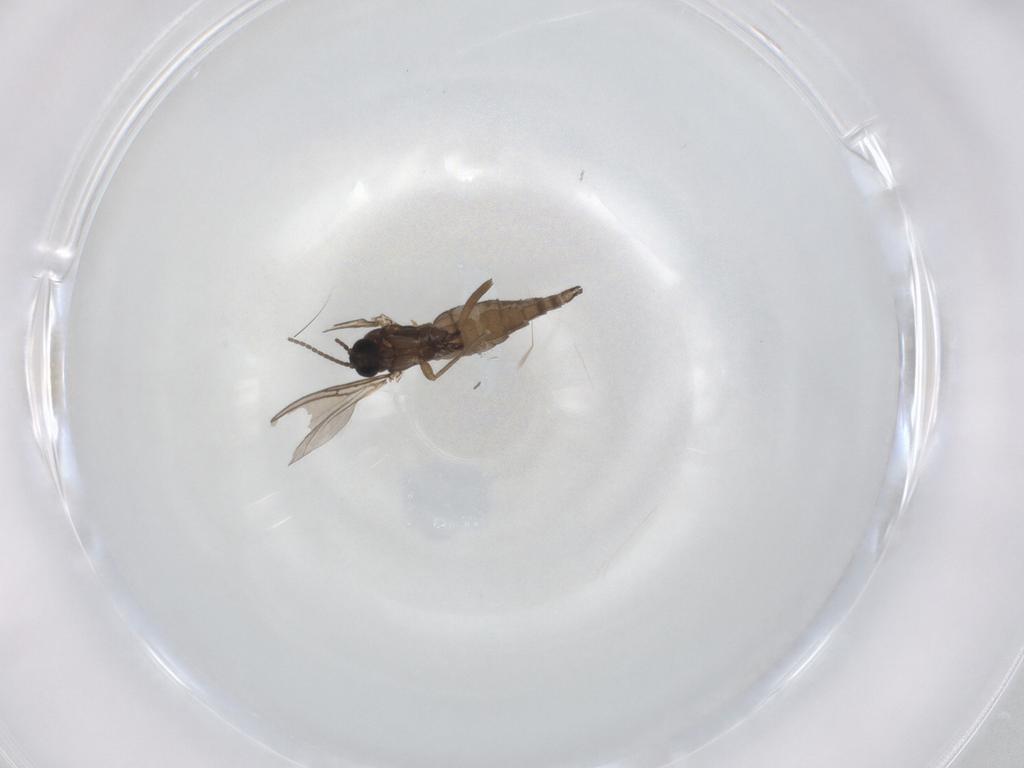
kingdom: Animalia
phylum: Arthropoda
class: Insecta
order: Diptera
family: Sciaridae
